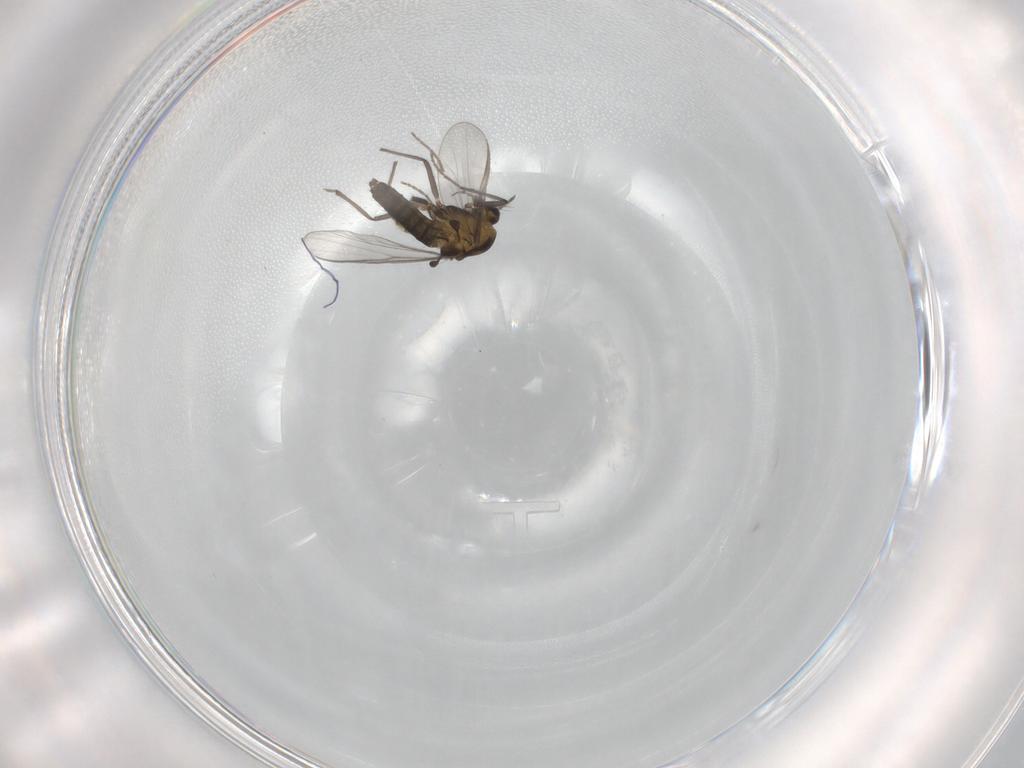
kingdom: Animalia
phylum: Arthropoda
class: Insecta
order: Diptera
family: Chironomidae
